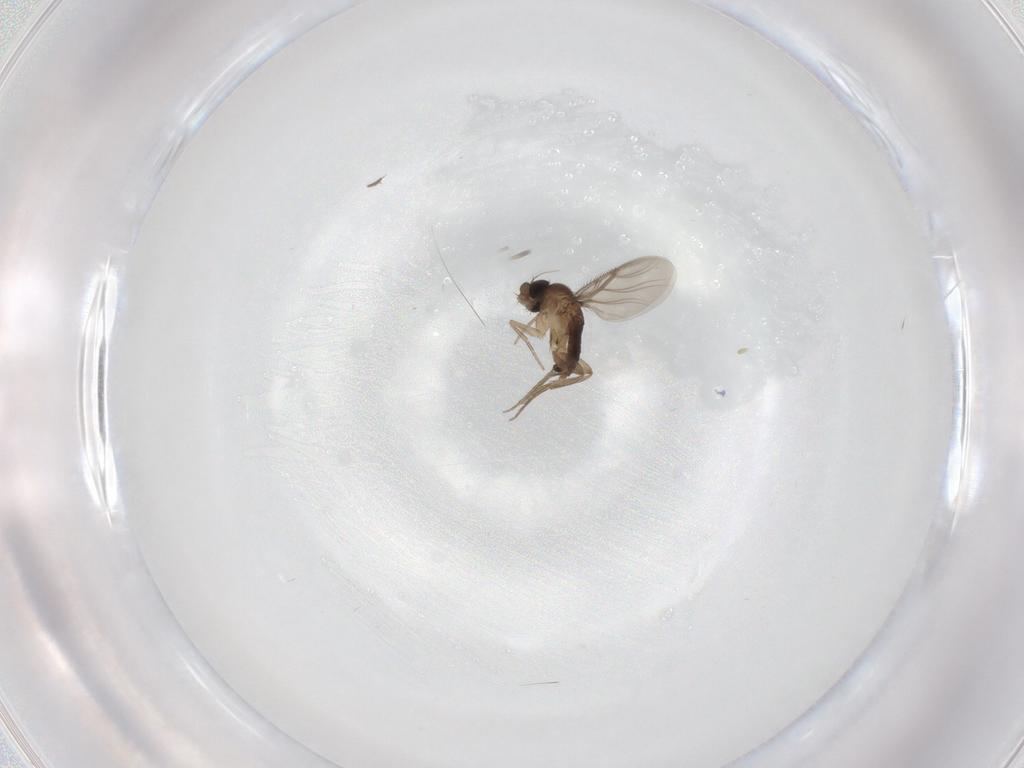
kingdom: Animalia
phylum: Arthropoda
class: Insecta
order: Diptera
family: Phoridae
